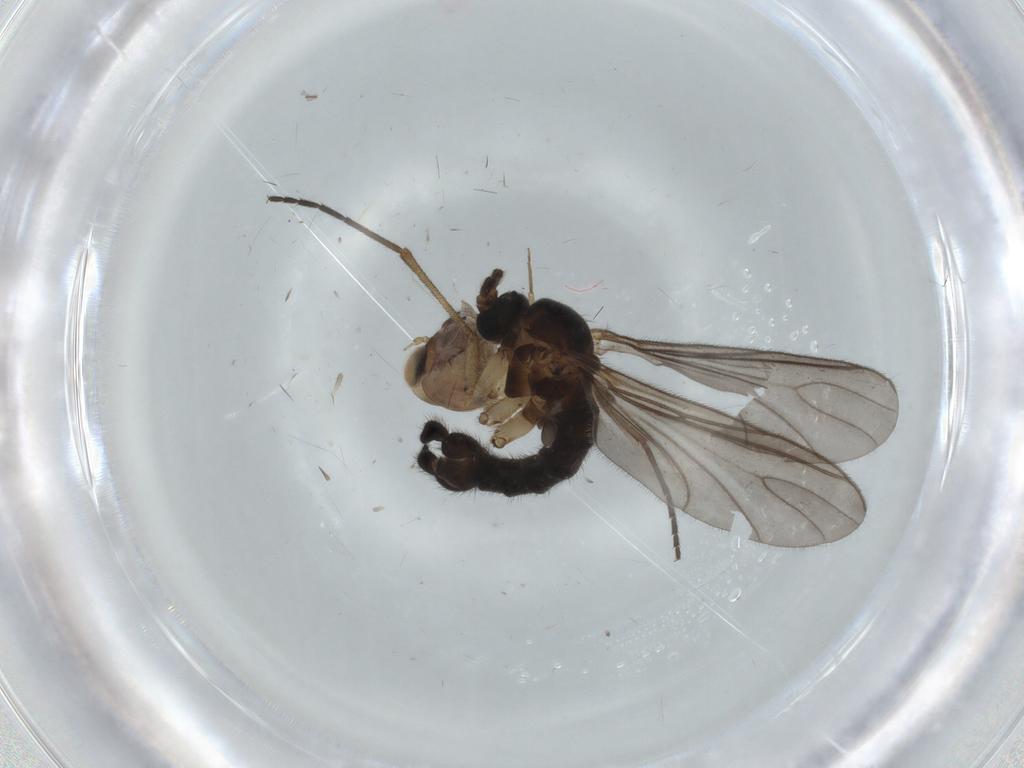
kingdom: Animalia
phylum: Arthropoda
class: Insecta
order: Diptera
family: Sciaridae
